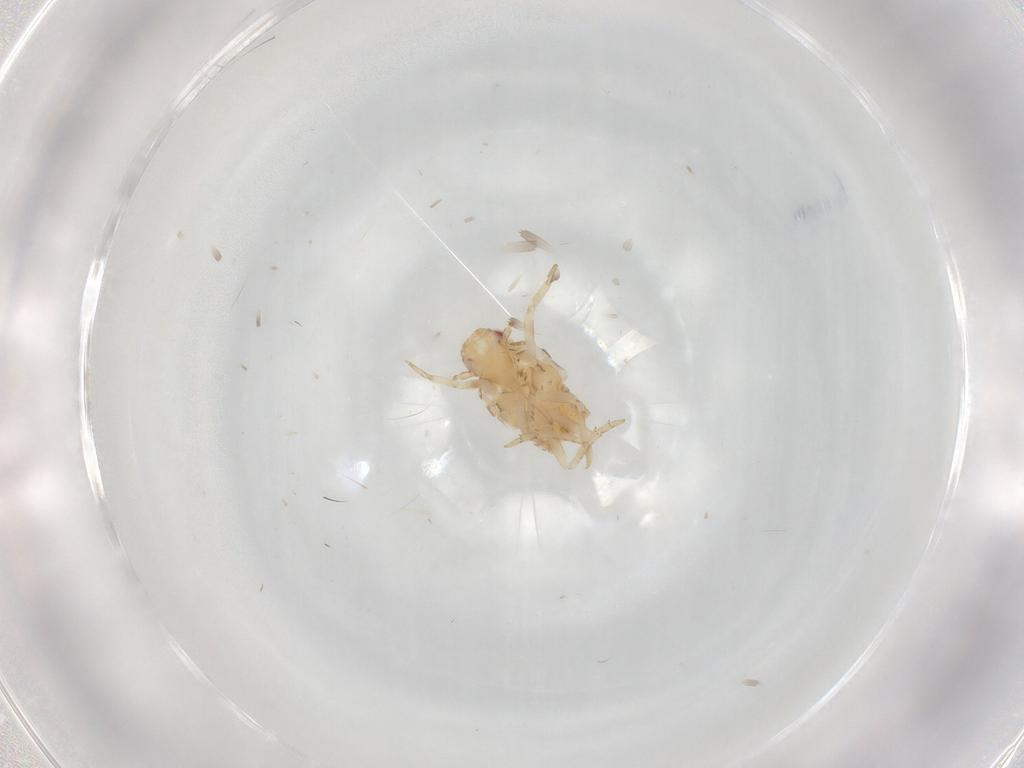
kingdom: Animalia
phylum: Arthropoda
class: Insecta
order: Hemiptera
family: Flatidae
